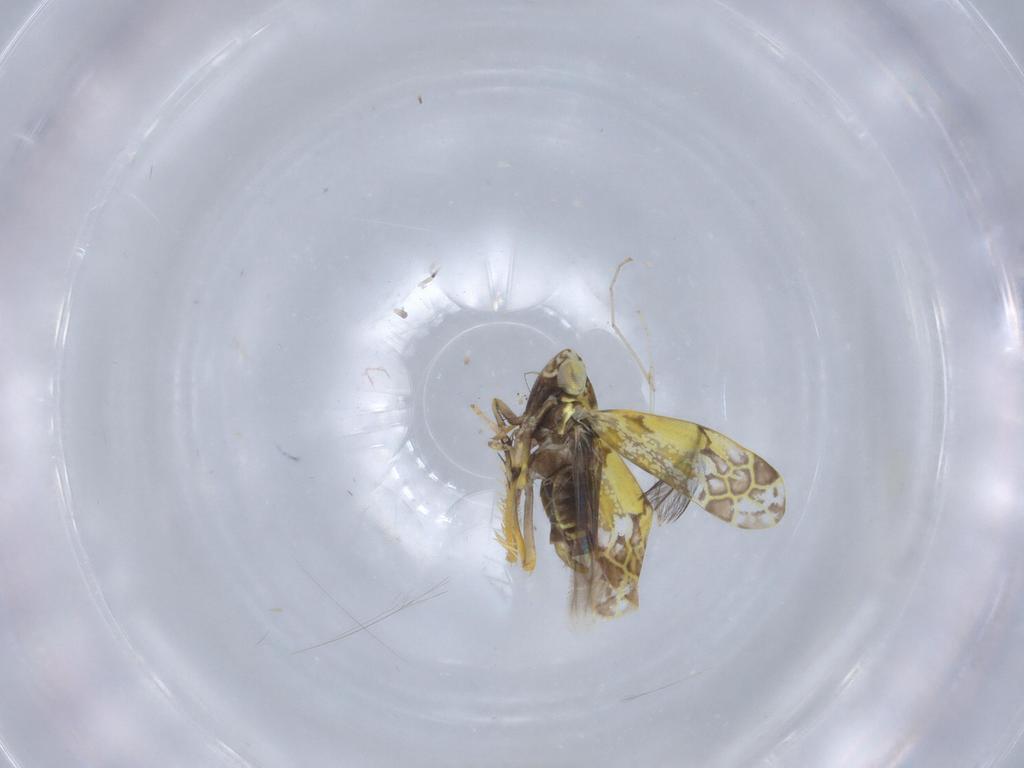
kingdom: Animalia
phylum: Arthropoda
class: Insecta
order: Hemiptera
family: Cicadellidae
